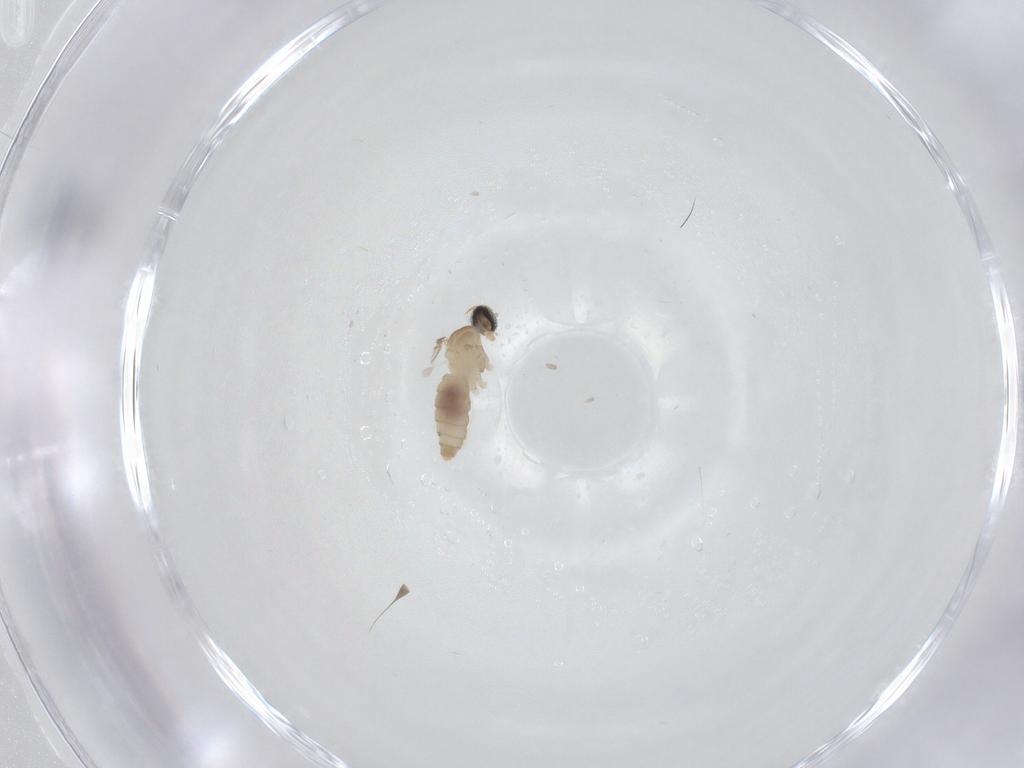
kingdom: Animalia
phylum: Arthropoda
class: Insecta
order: Diptera
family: Cecidomyiidae
